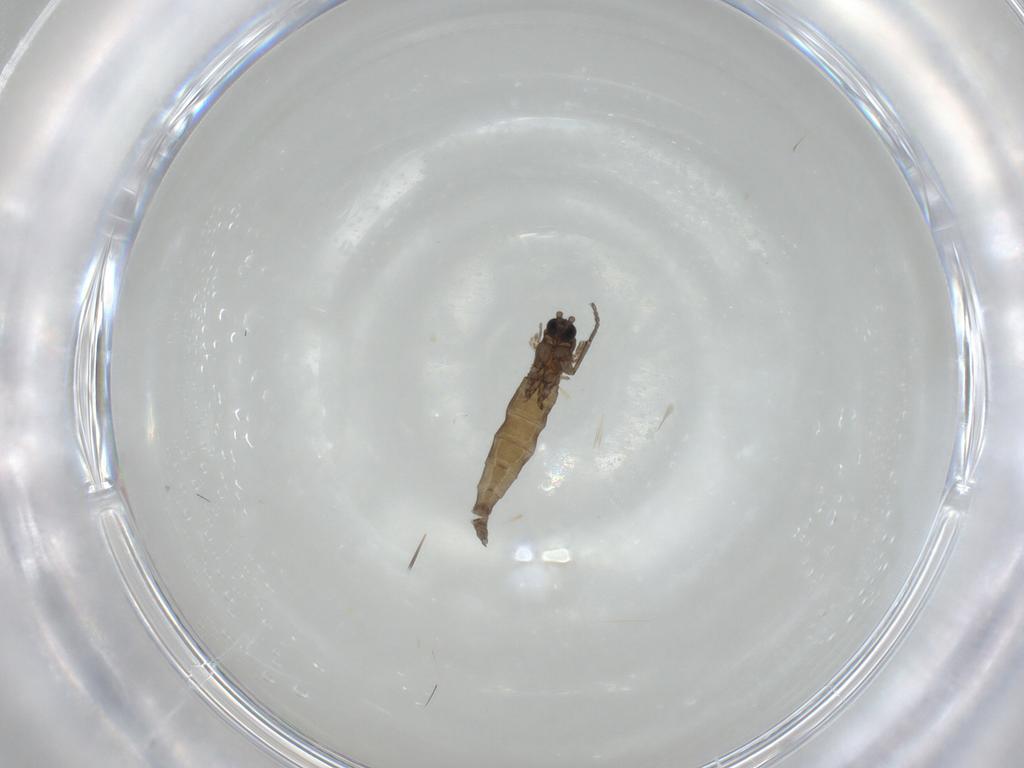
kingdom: Animalia
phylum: Arthropoda
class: Insecta
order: Diptera
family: Sciaridae
